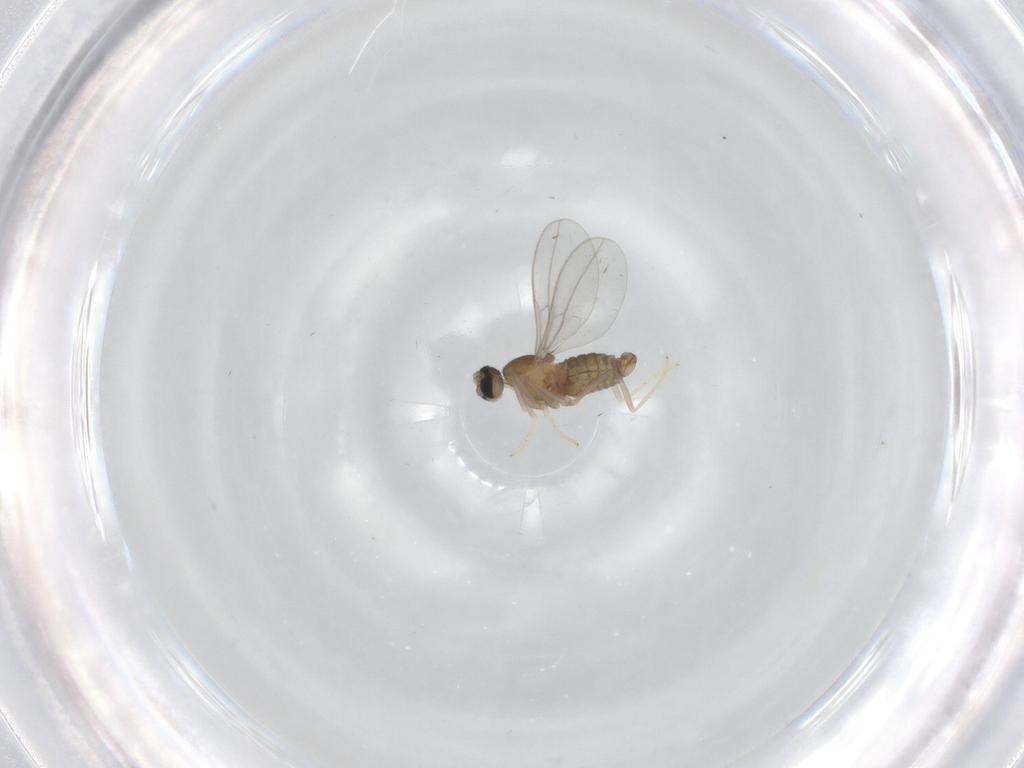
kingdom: Animalia
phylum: Arthropoda
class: Insecta
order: Diptera
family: Cecidomyiidae
